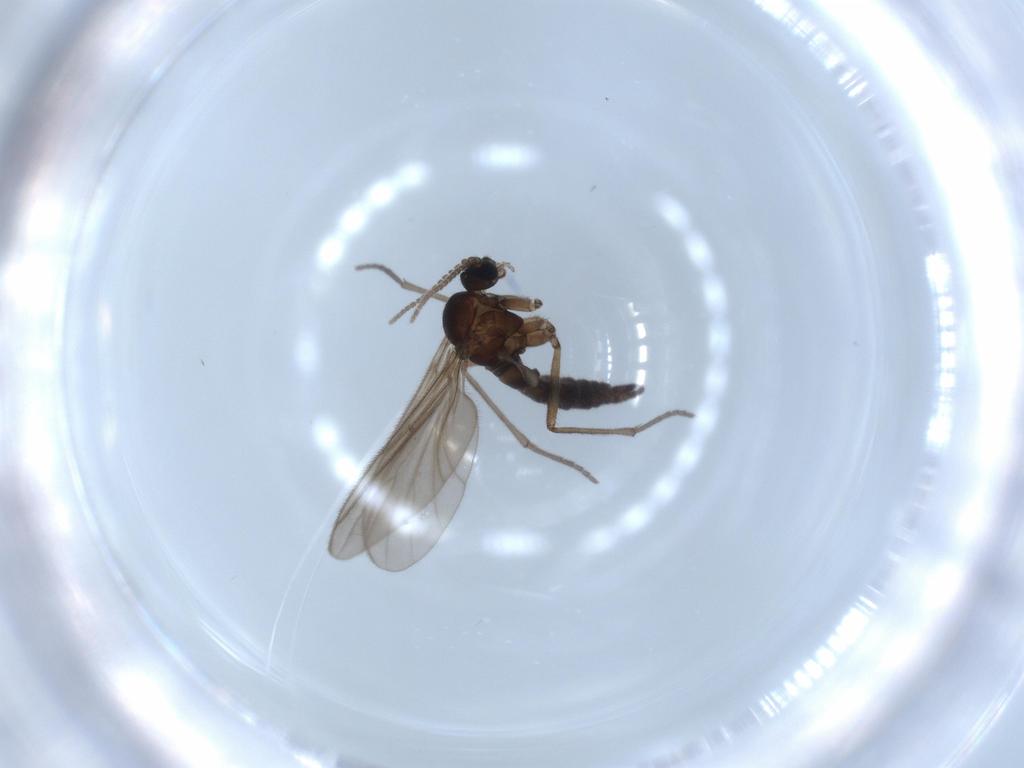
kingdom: Animalia
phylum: Arthropoda
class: Insecta
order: Diptera
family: Sciaridae
